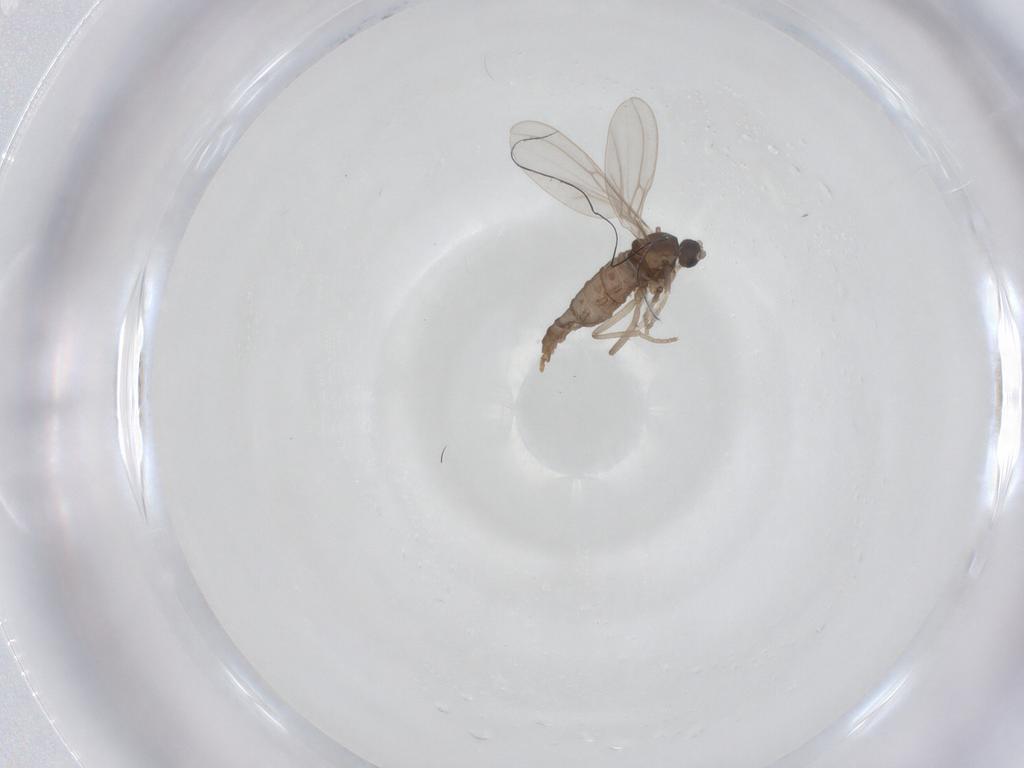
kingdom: Animalia
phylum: Arthropoda
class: Insecta
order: Diptera
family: Cecidomyiidae
